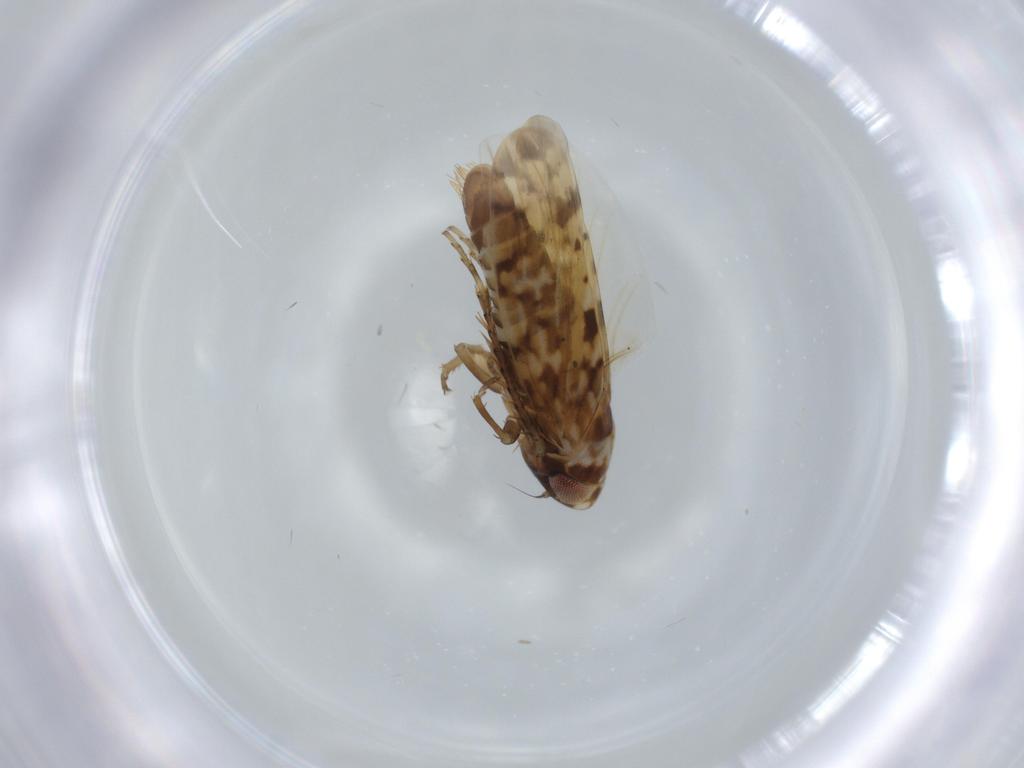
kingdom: Animalia
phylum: Arthropoda
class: Insecta
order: Hemiptera
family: Cicadellidae
